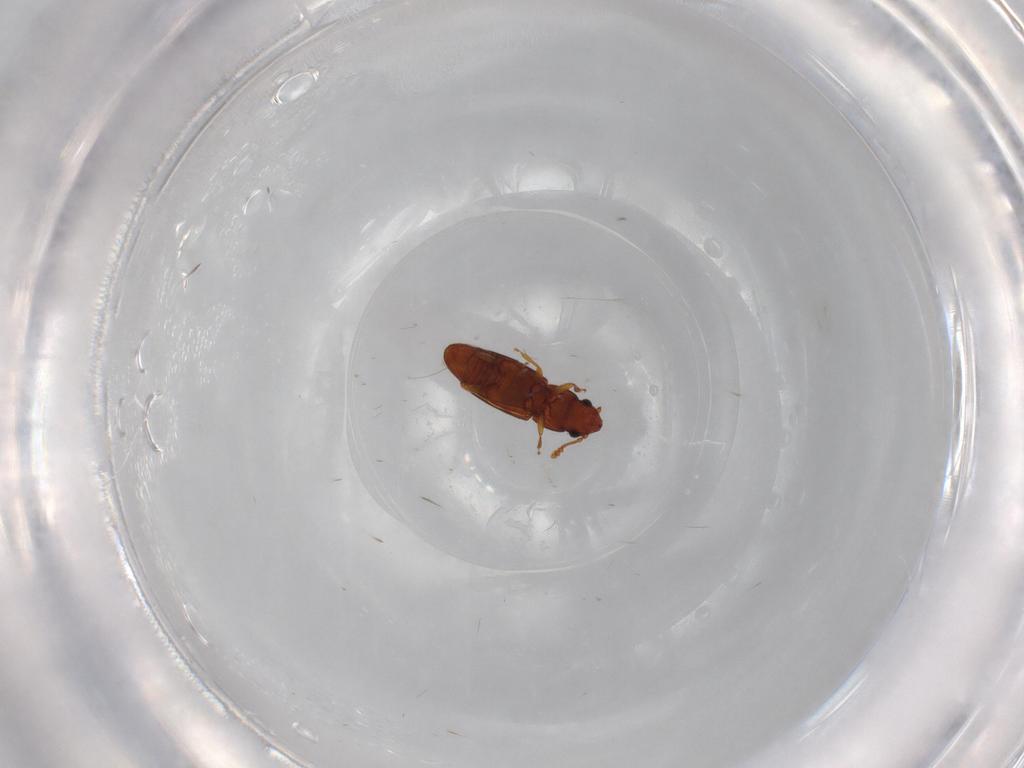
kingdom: Animalia
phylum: Arthropoda
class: Insecta
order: Coleoptera
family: Smicripidae
